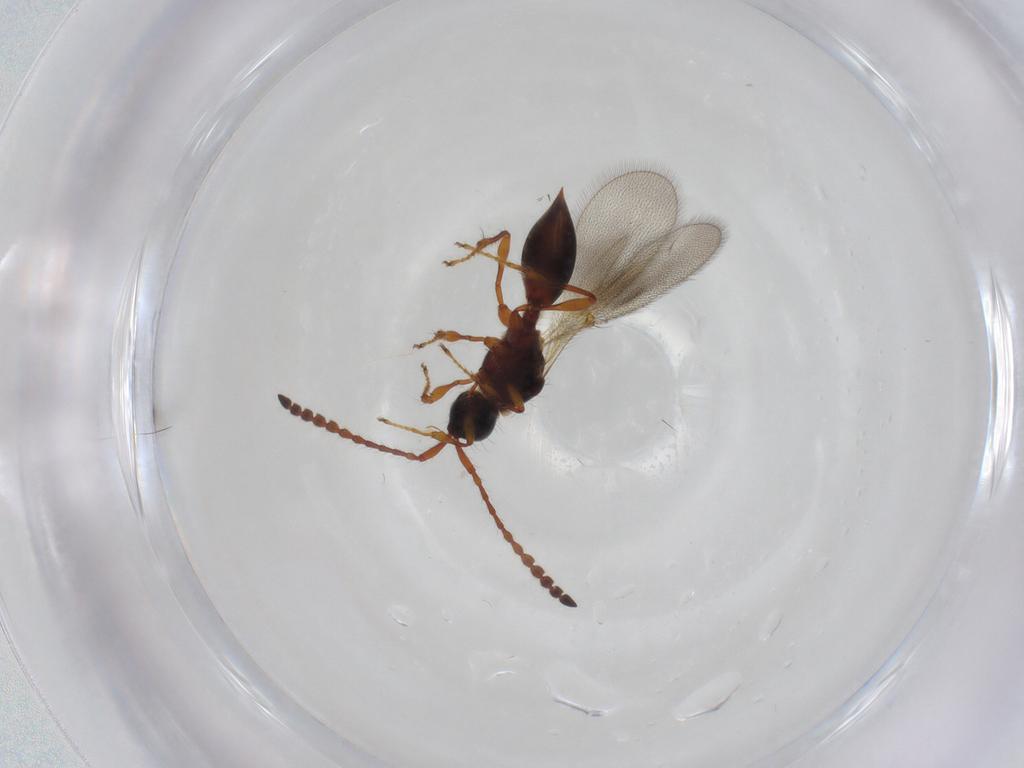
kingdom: Animalia
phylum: Arthropoda
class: Insecta
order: Hymenoptera
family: Diapriidae
